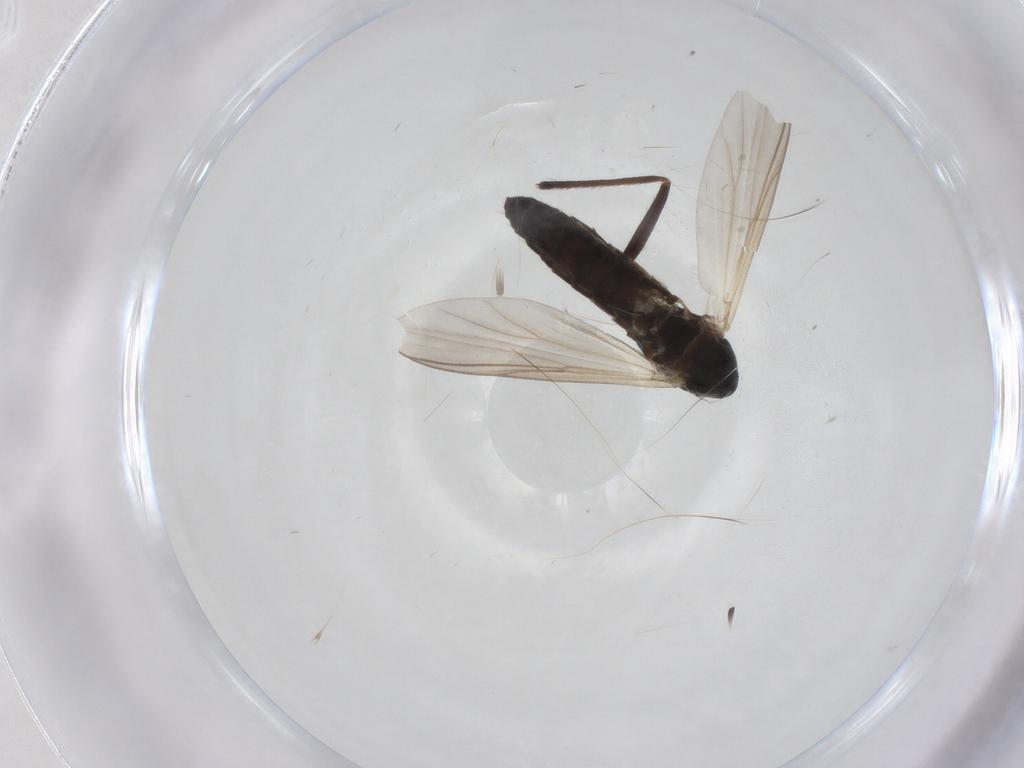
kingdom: Animalia
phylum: Arthropoda
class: Insecta
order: Diptera
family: Chironomidae
